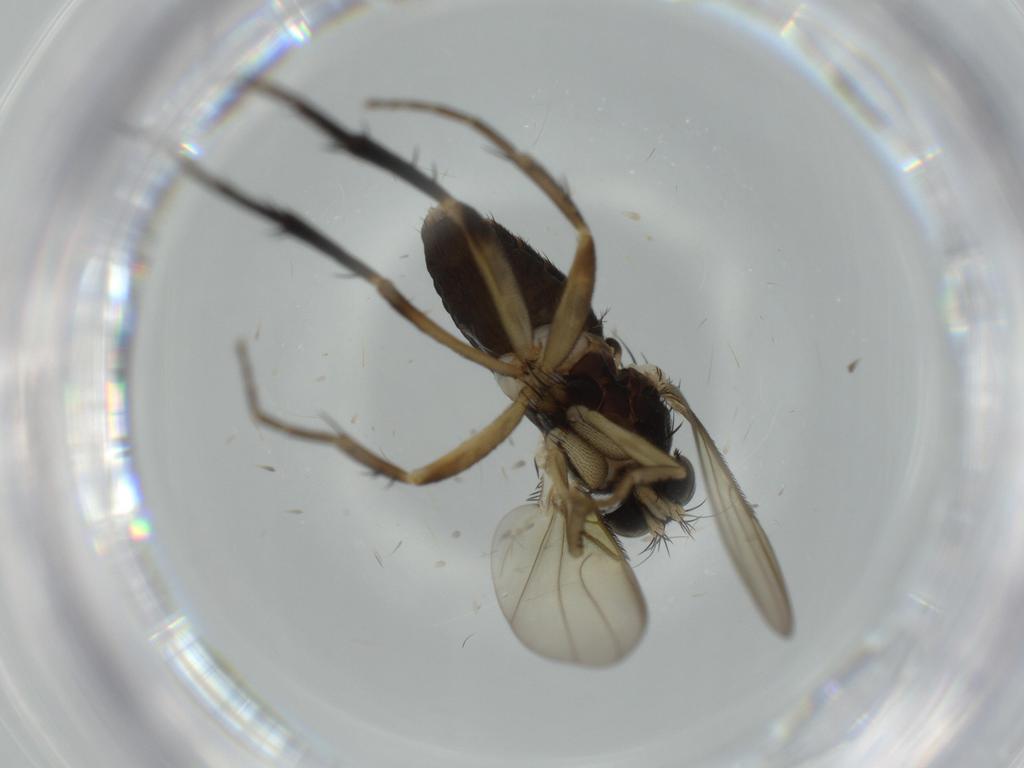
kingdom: Animalia
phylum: Arthropoda
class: Insecta
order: Diptera
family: Phoridae
